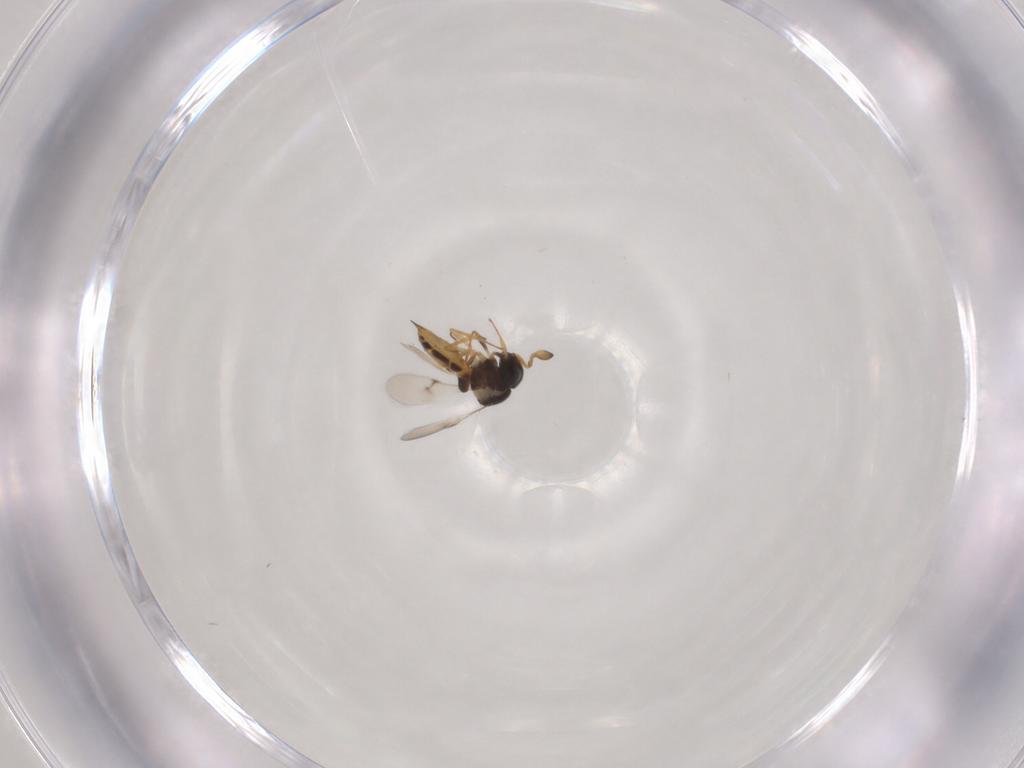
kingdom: Animalia
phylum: Arthropoda
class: Insecta
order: Hymenoptera
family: Scelionidae
